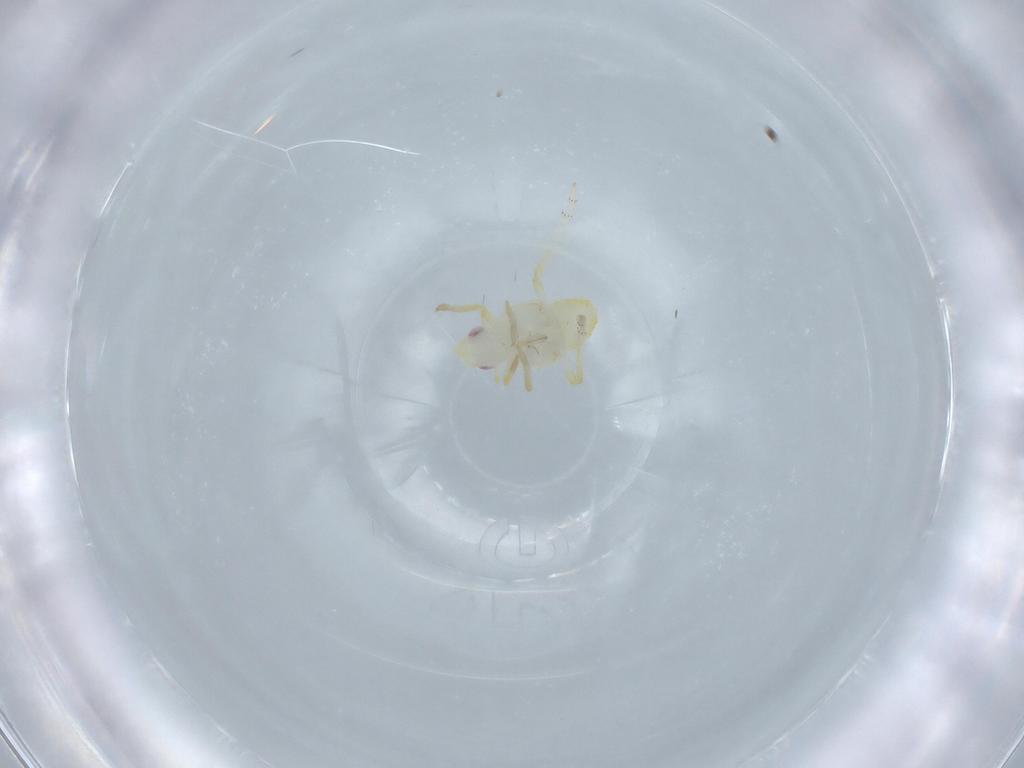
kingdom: Animalia
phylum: Arthropoda
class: Insecta
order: Hemiptera
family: Tropiduchidae
